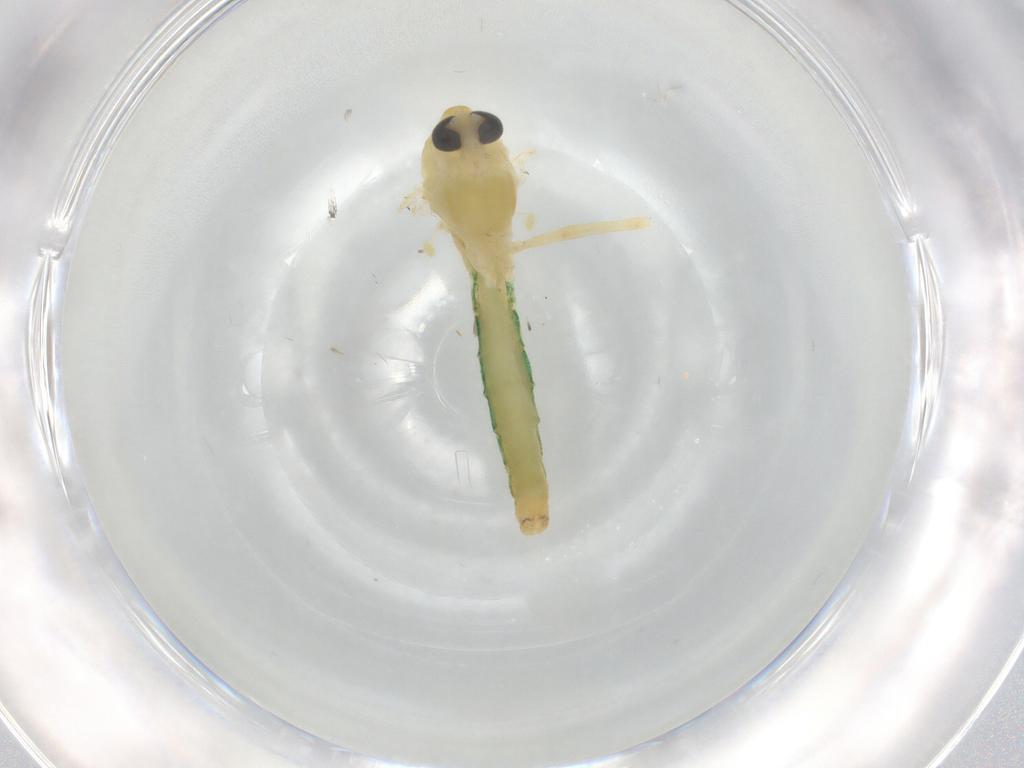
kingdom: Animalia
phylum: Arthropoda
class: Insecta
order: Diptera
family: Chironomidae
